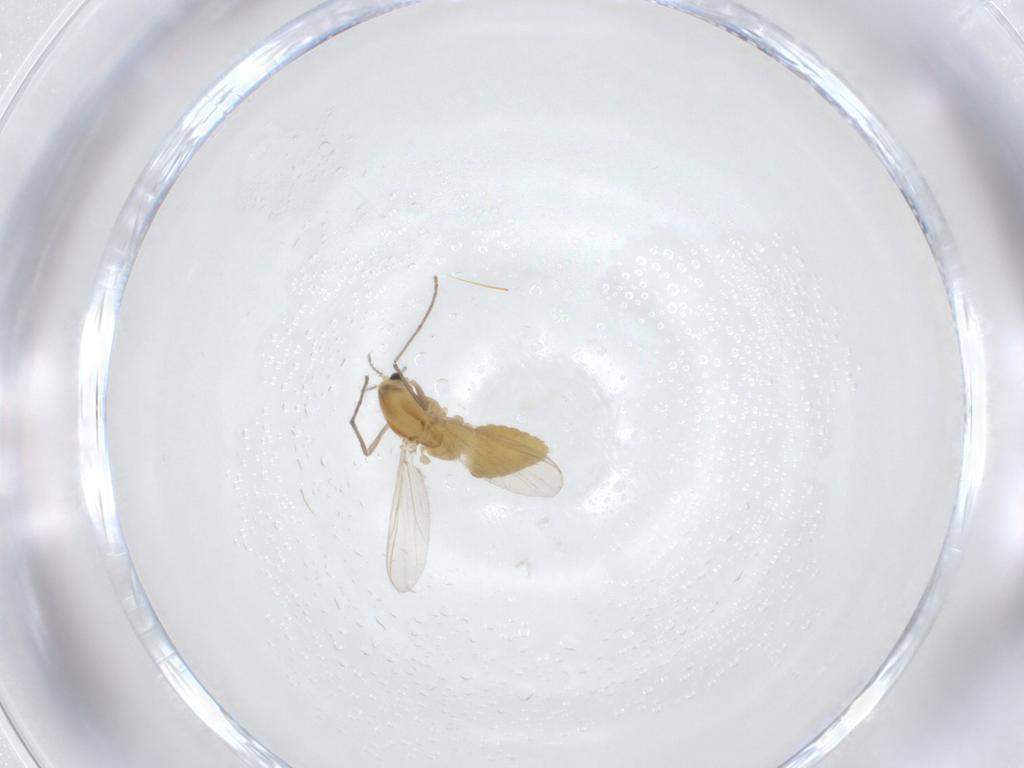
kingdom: Animalia
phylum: Arthropoda
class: Insecta
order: Diptera
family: Chironomidae
